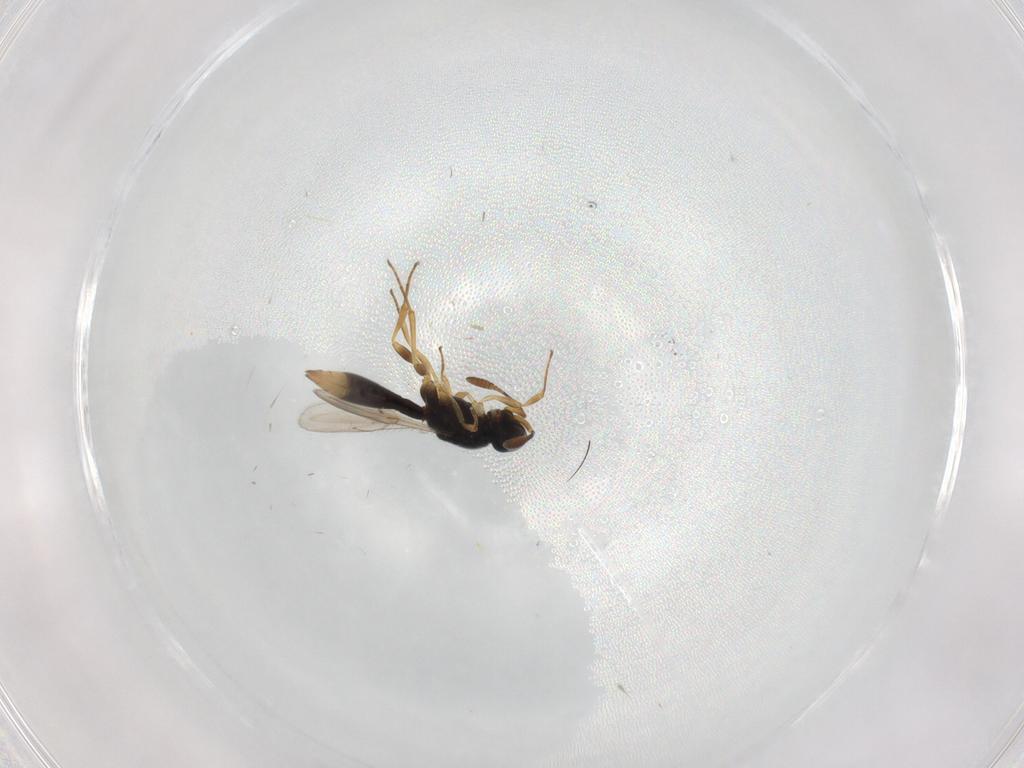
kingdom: Animalia
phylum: Arthropoda
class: Insecta
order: Hymenoptera
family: Scelionidae
